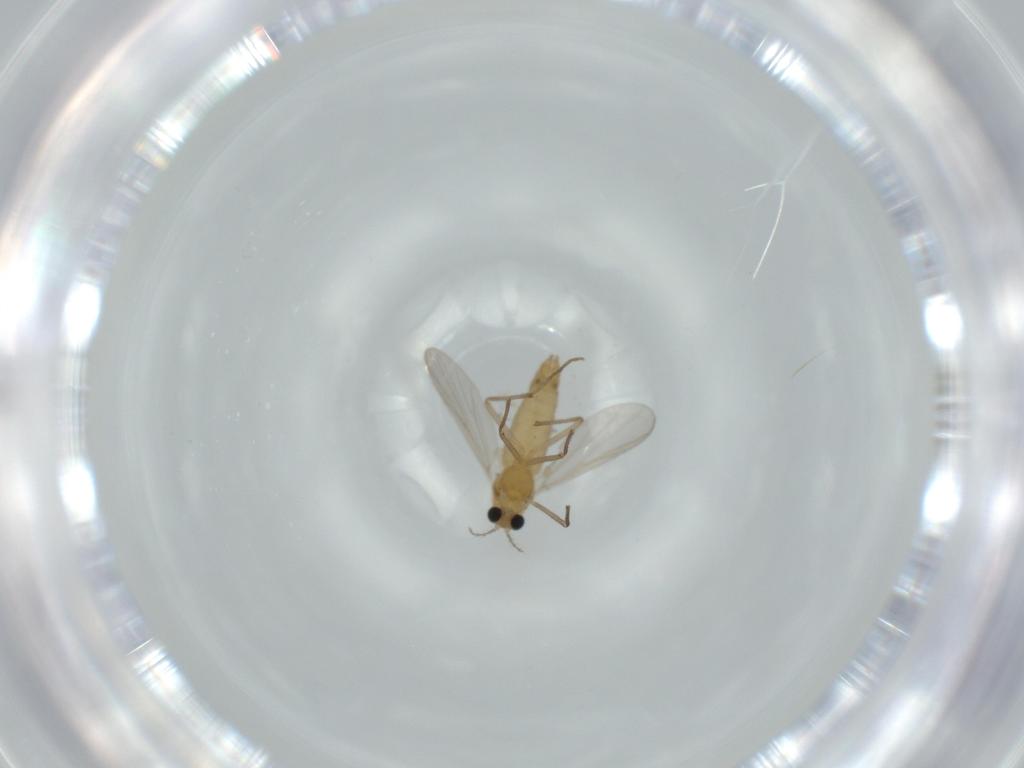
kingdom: Animalia
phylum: Arthropoda
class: Insecta
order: Diptera
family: Chironomidae
